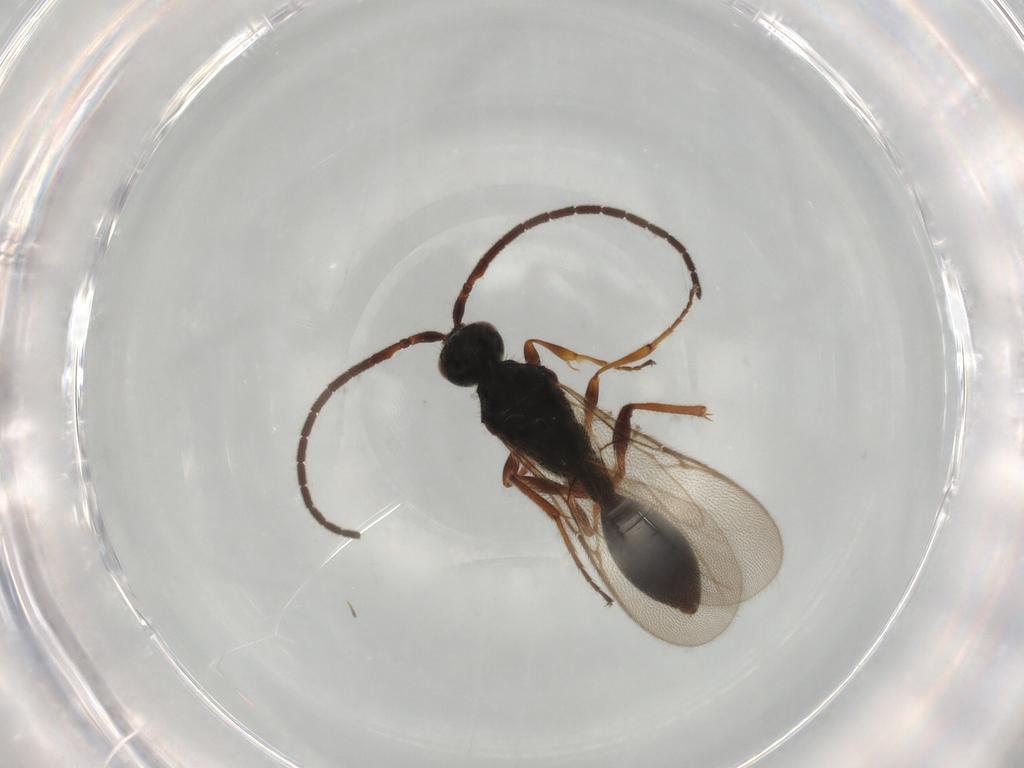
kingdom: Animalia
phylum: Arthropoda
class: Insecta
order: Hymenoptera
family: Ichneumonidae
